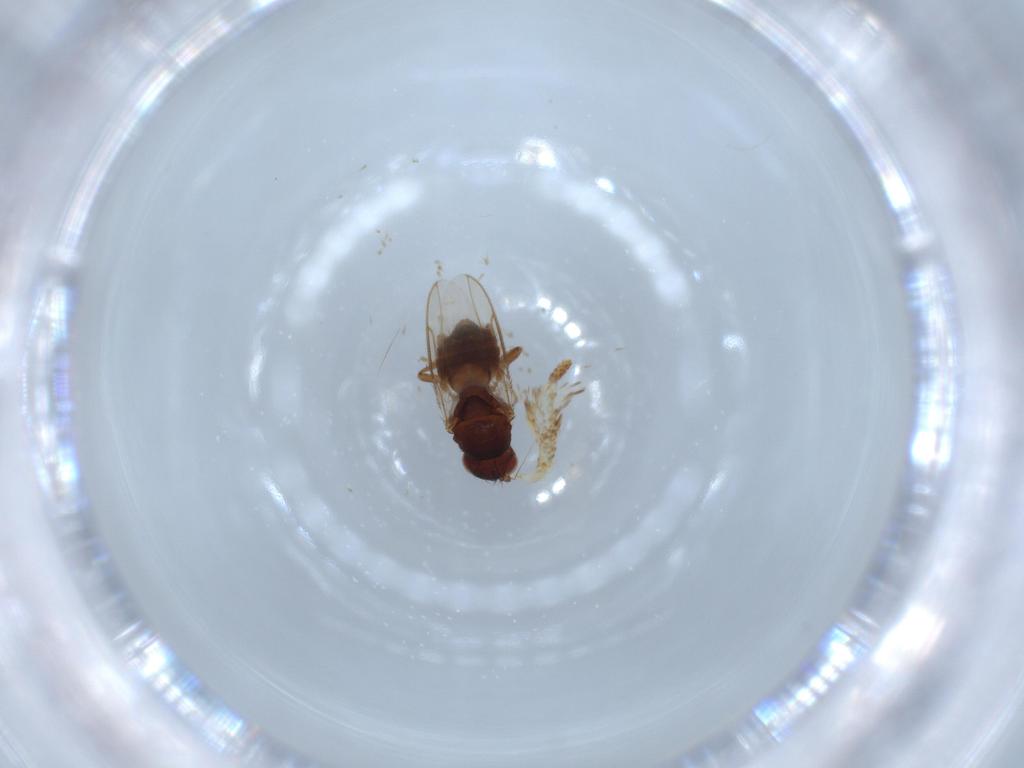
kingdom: Animalia
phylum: Arthropoda
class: Insecta
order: Diptera
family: Sphaeroceridae
